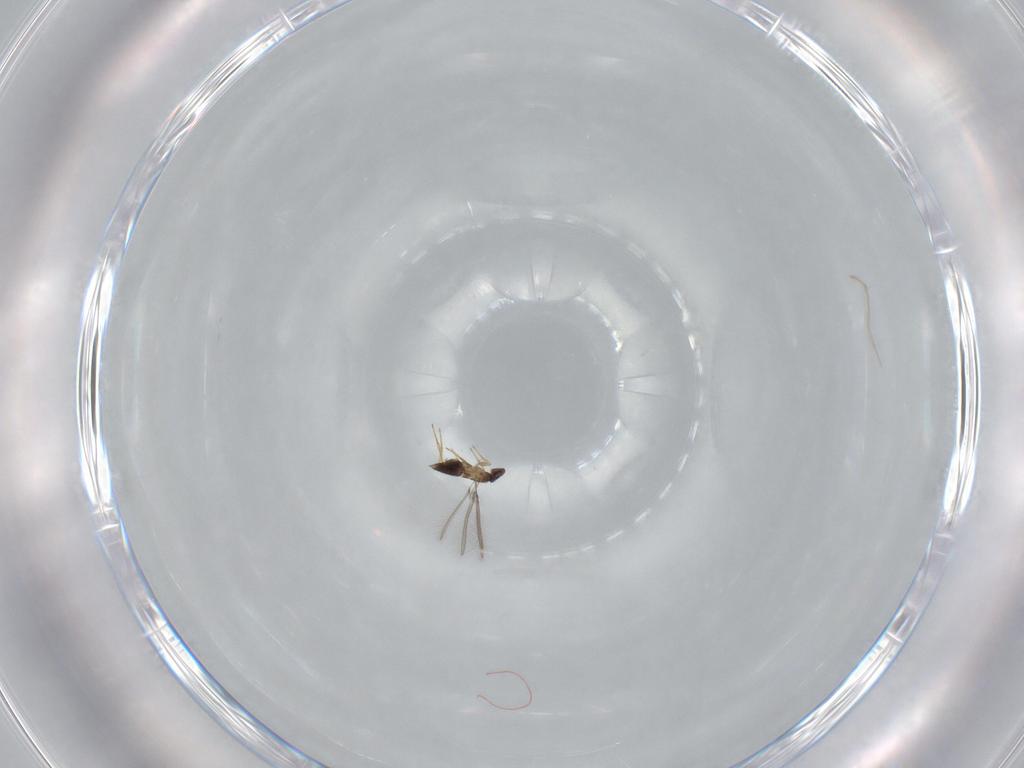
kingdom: Animalia
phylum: Arthropoda
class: Insecta
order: Hymenoptera
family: Mymaridae
